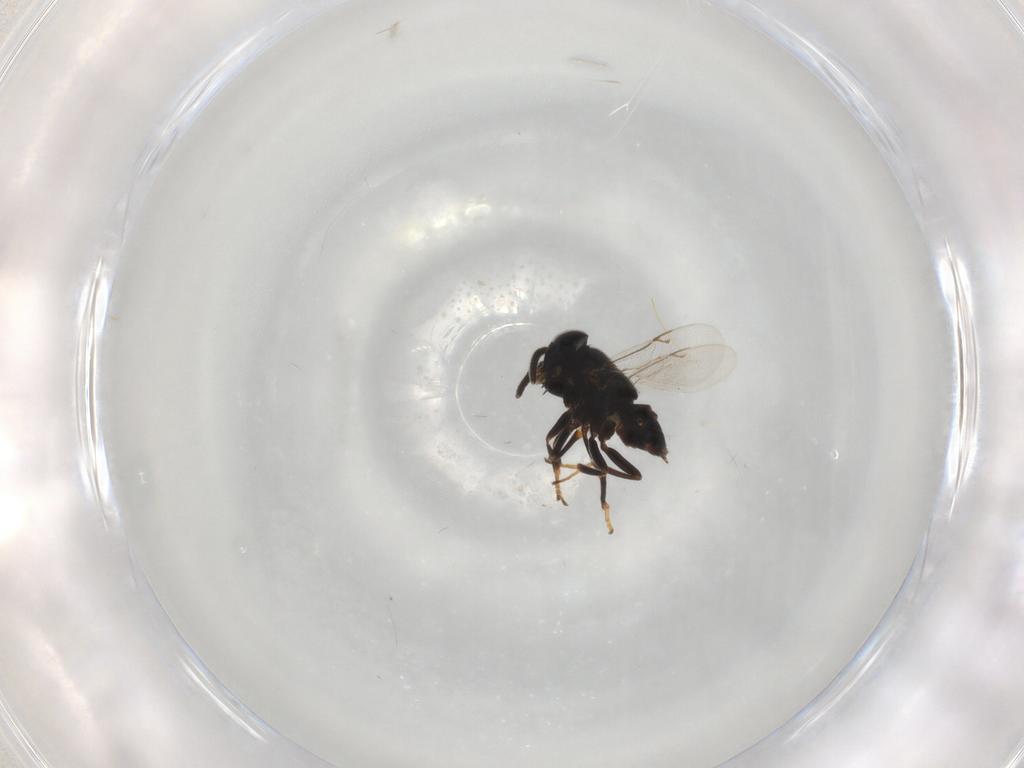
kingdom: Animalia
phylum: Arthropoda
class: Insecta
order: Hymenoptera
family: Encyrtidae
